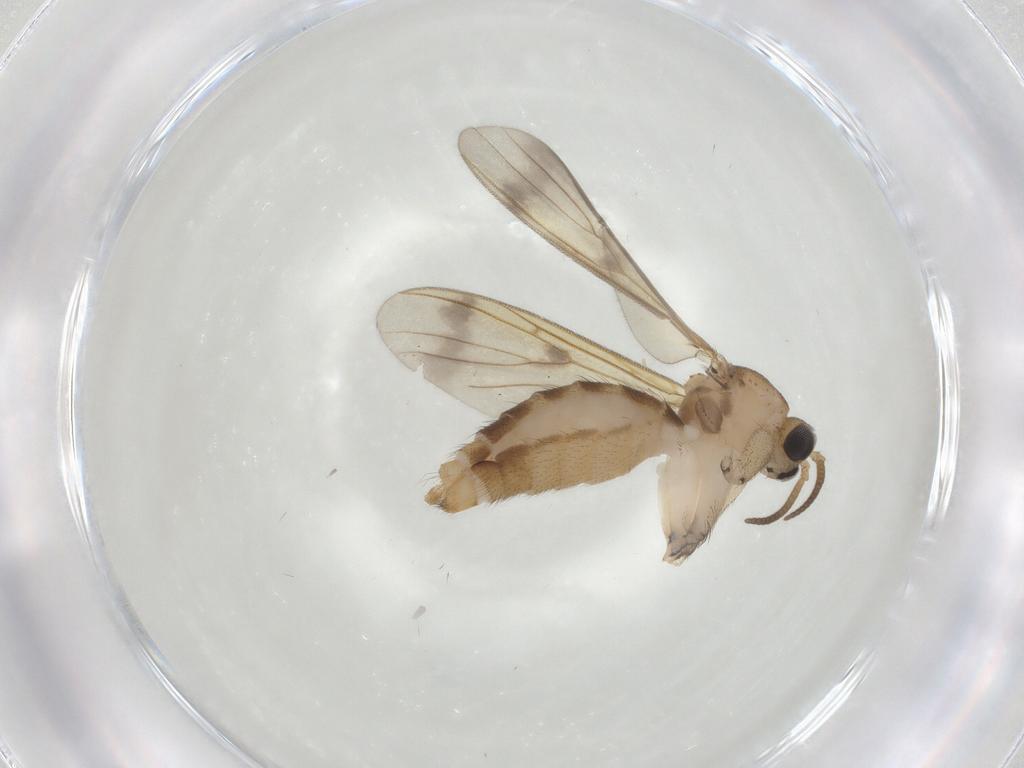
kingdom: Animalia
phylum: Arthropoda
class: Insecta
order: Diptera
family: Mycetophilidae
